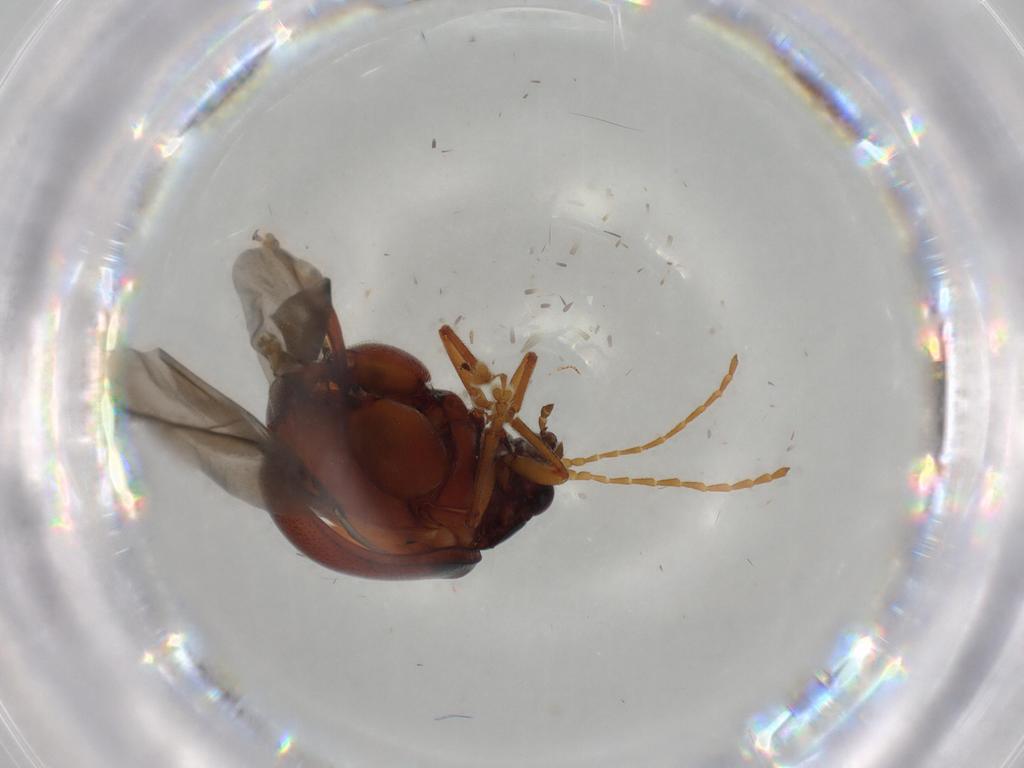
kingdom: Animalia
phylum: Arthropoda
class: Insecta
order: Coleoptera
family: Chrysomelidae
